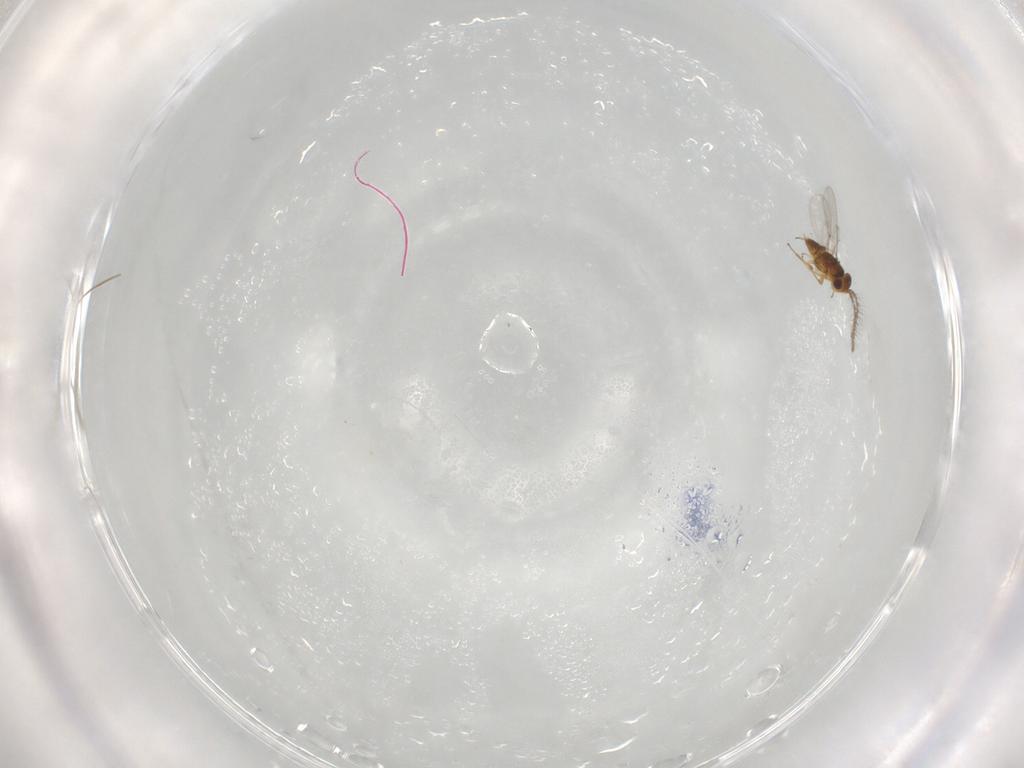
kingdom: Animalia
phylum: Arthropoda
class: Insecta
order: Hymenoptera
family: Encyrtidae
